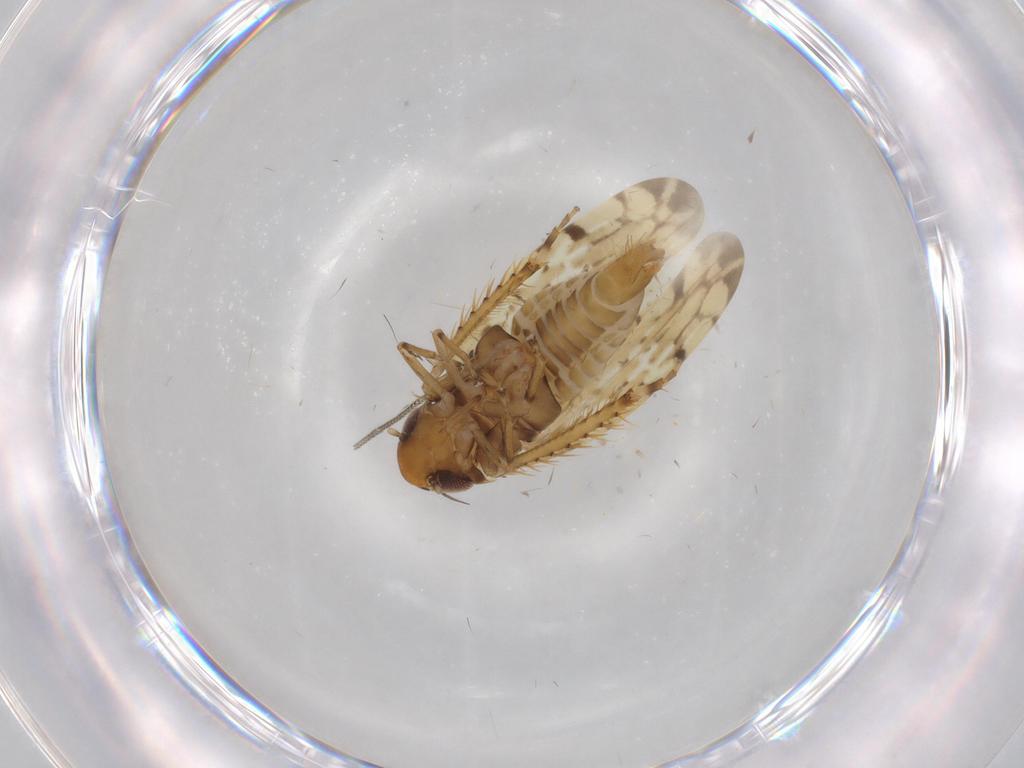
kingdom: Animalia
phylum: Arthropoda
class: Insecta
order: Hemiptera
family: Cicadellidae
